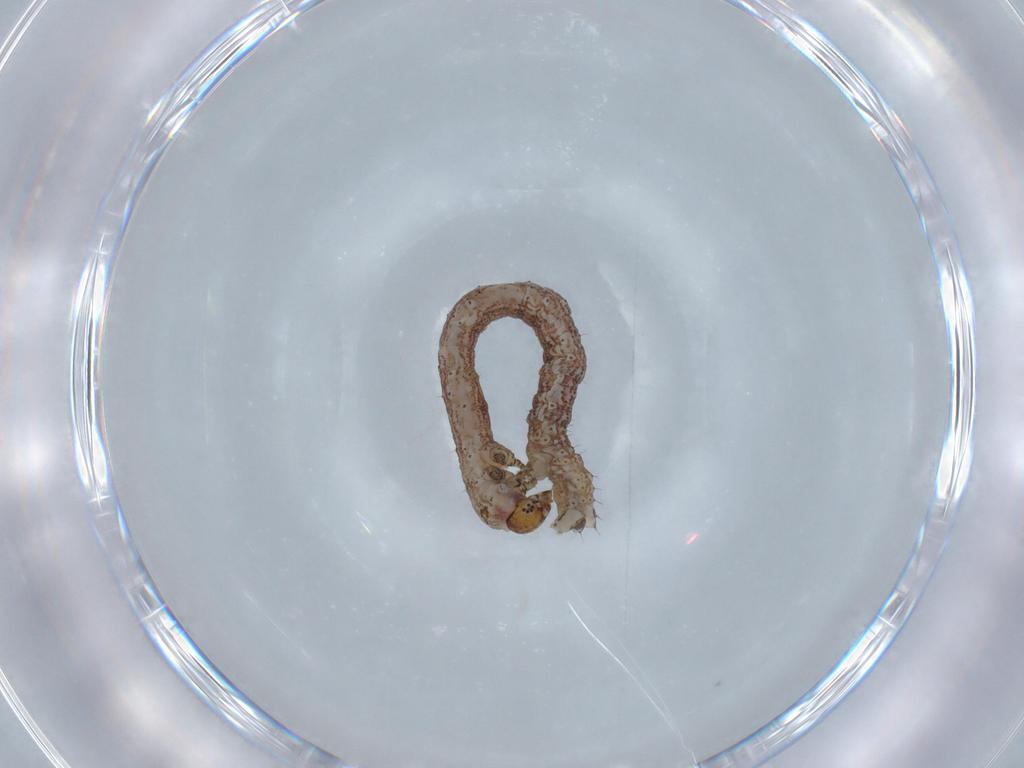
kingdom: Animalia
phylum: Arthropoda
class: Insecta
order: Lepidoptera
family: Geometridae
